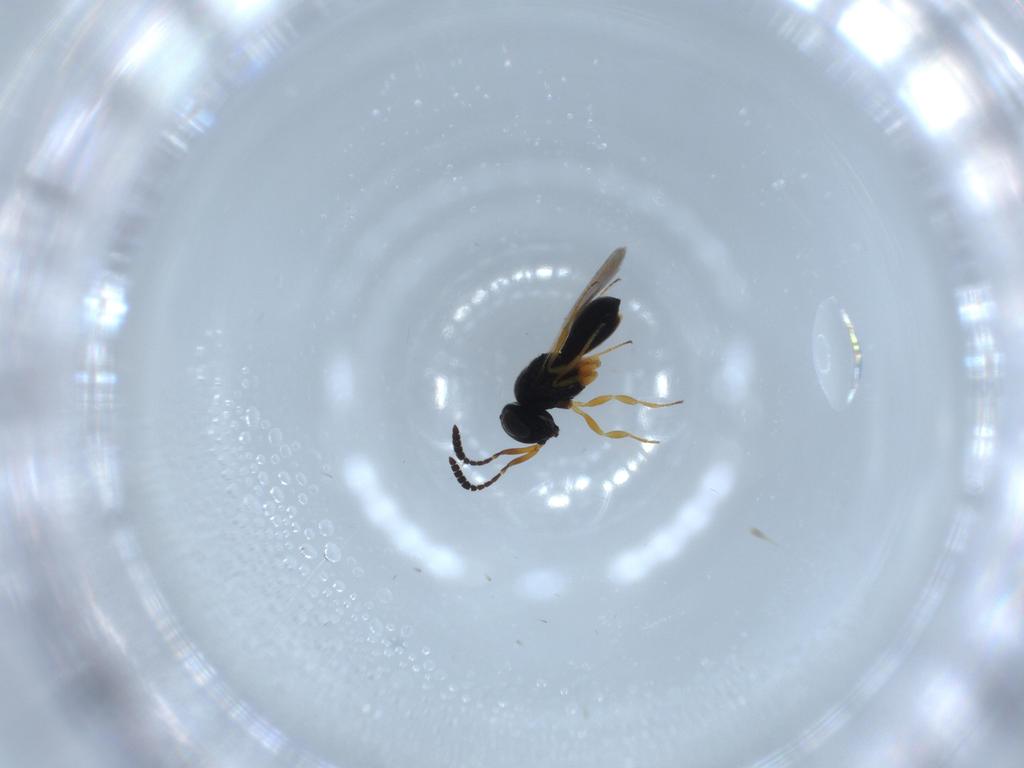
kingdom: Animalia
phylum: Arthropoda
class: Insecta
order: Hymenoptera
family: Scelionidae
